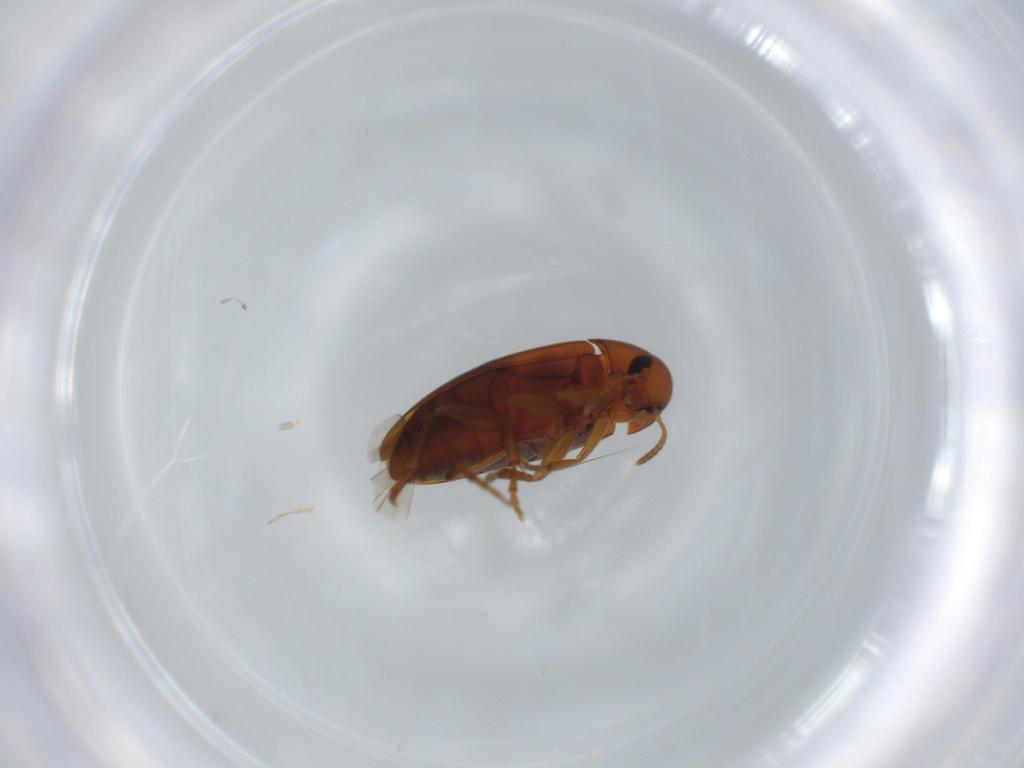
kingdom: Animalia
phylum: Arthropoda
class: Insecta
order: Coleoptera
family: Scraptiidae
